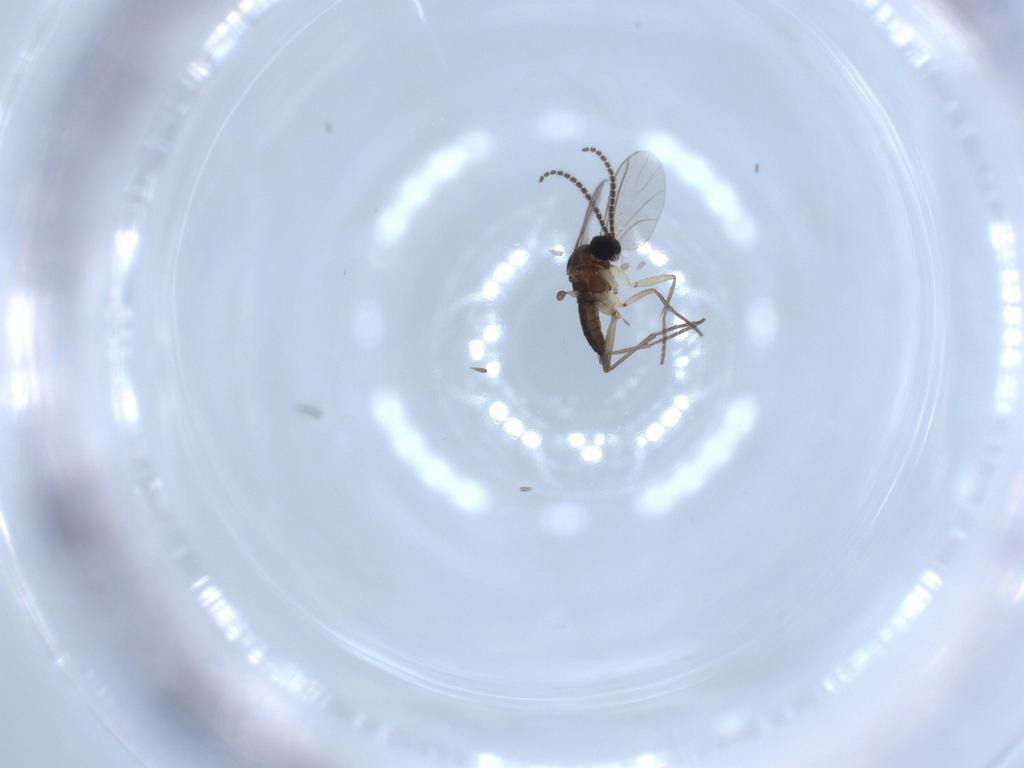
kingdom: Animalia
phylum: Arthropoda
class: Insecta
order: Diptera
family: Sciaridae
